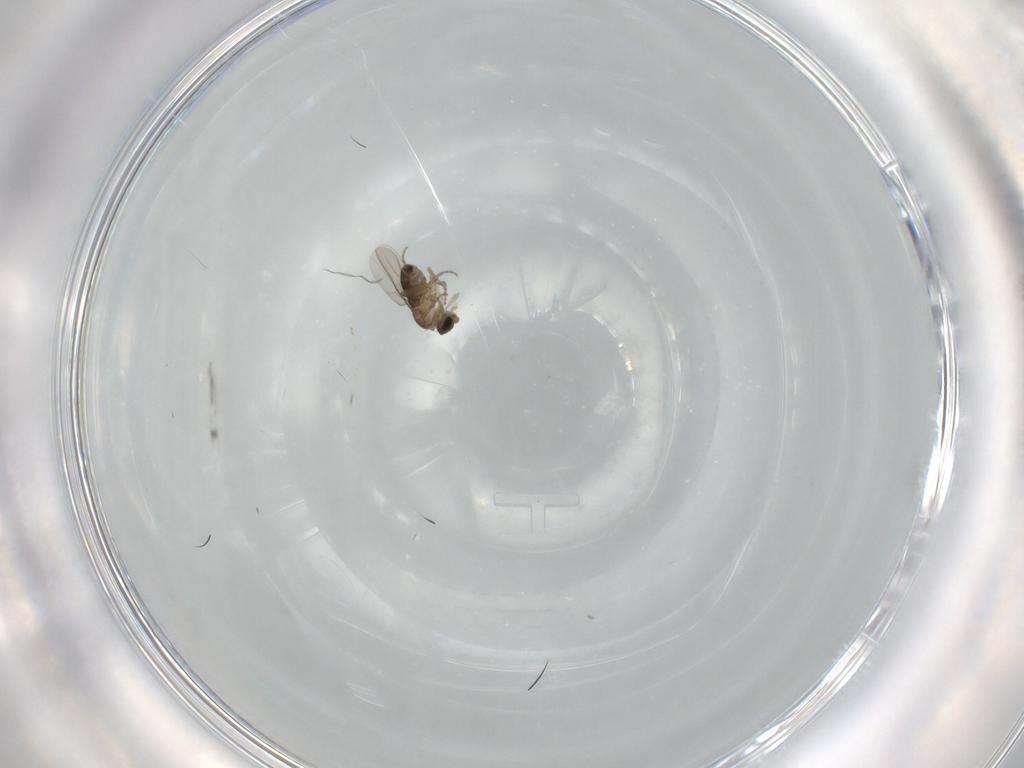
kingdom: Animalia
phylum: Arthropoda
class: Insecta
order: Diptera
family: Phoridae
